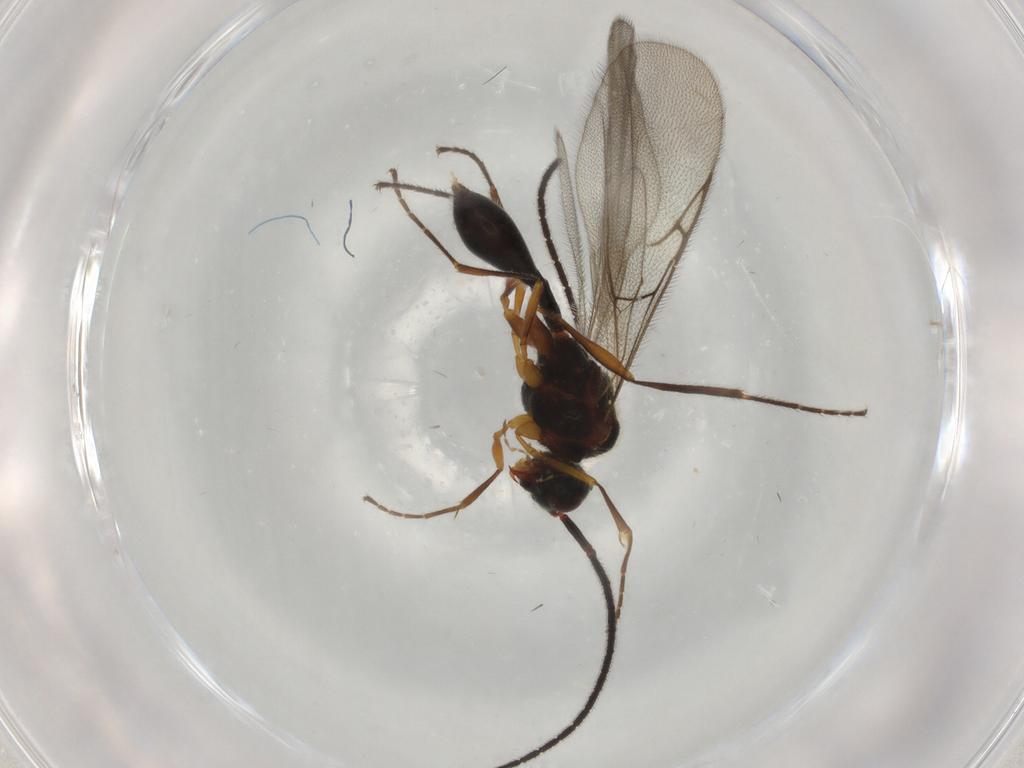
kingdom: Animalia
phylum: Arthropoda
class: Insecta
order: Hymenoptera
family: Diapriidae
